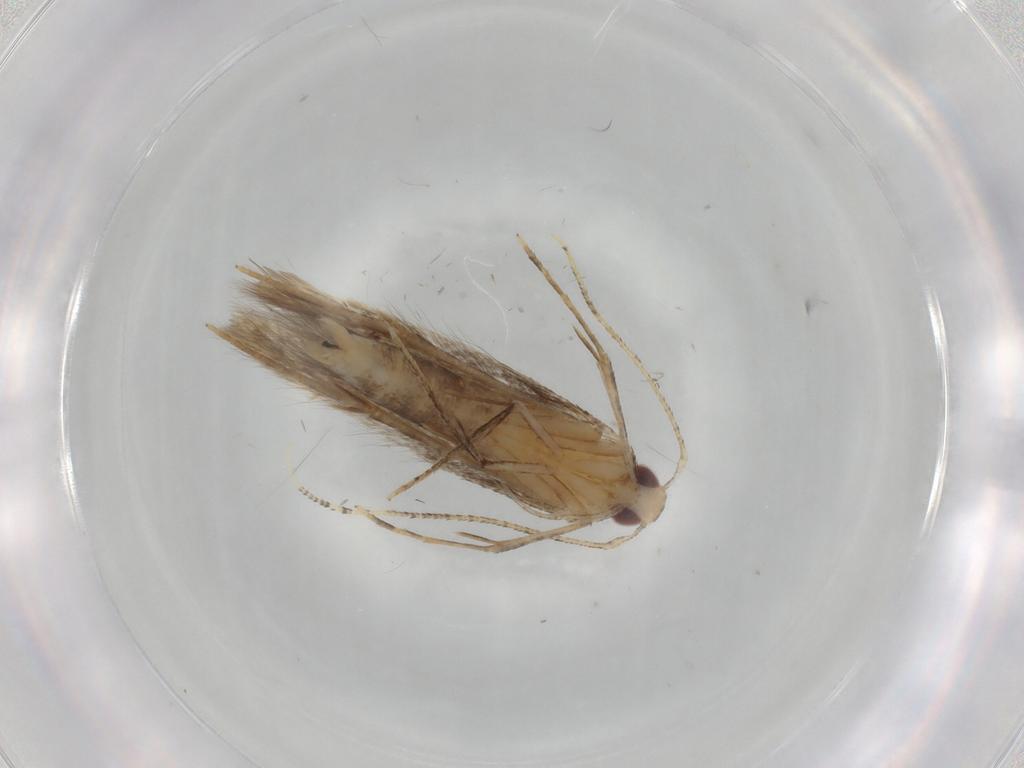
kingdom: Animalia
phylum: Arthropoda
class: Insecta
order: Lepidoptera
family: Cosmopterigidae
